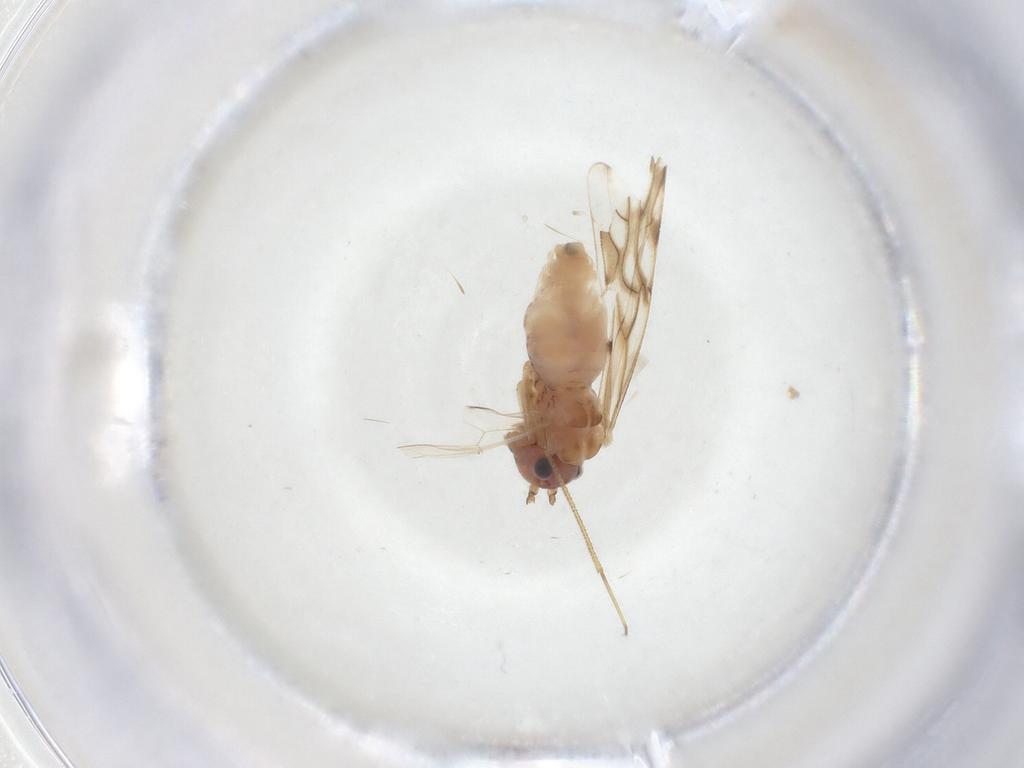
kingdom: Animalia
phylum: Arthropoda
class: Insecta
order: Psocodea
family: Epipsocidae
